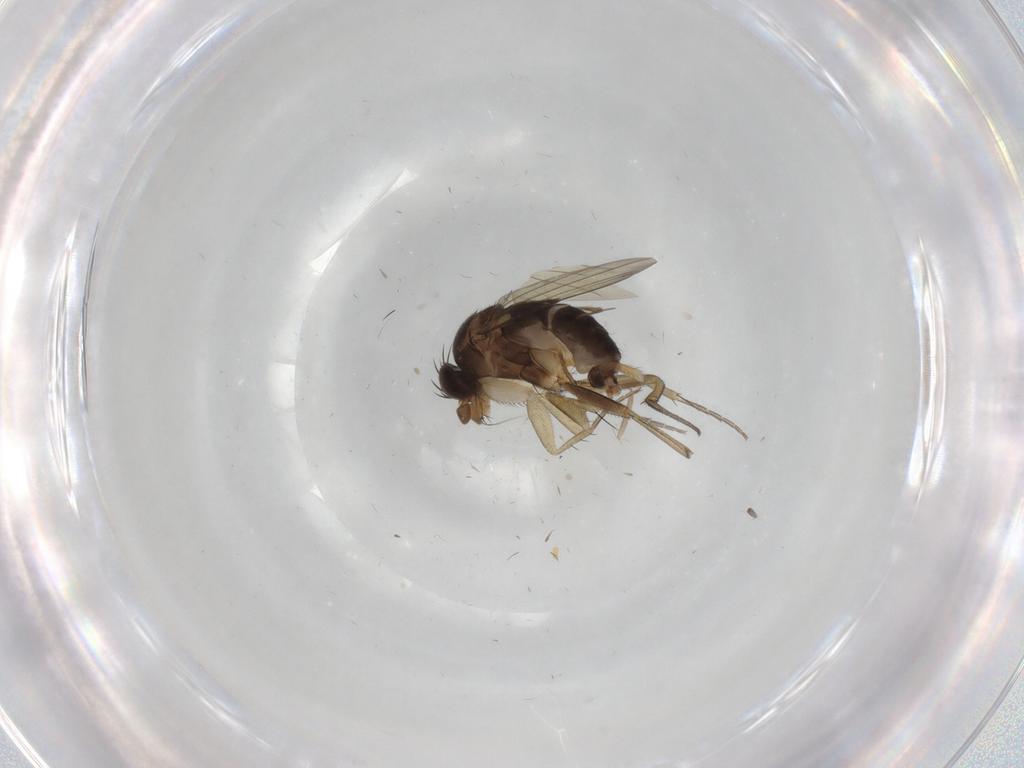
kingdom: Animalia
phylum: Arthropoda
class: Insecta
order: Diptera
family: Phoridae
